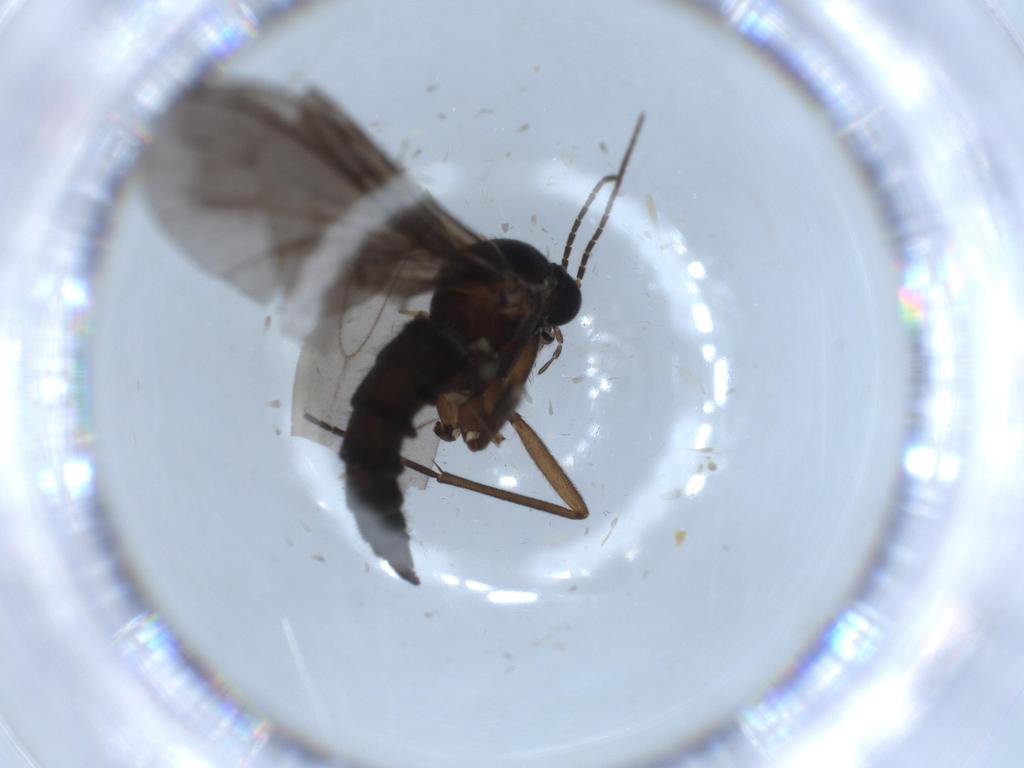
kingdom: Animalia
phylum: Arthropoda
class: Insecta
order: Diptera
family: Sciaridae
